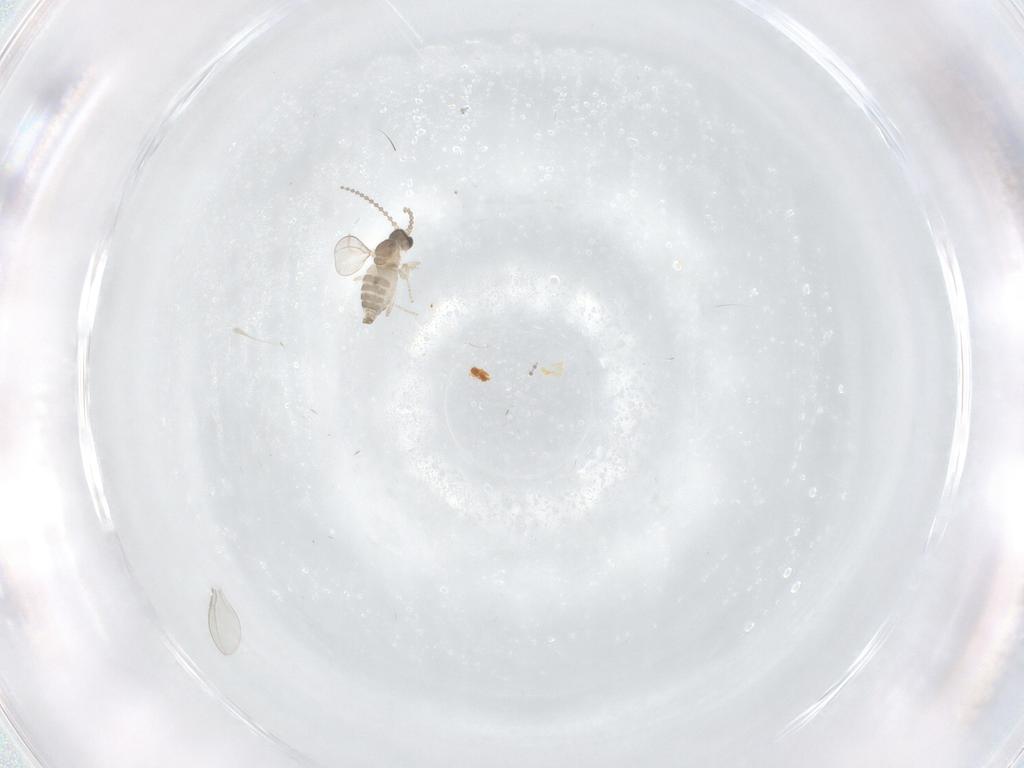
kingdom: Animalia
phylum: Arthropoda
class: Insecta
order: Diptera
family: Cecidomyiidae
